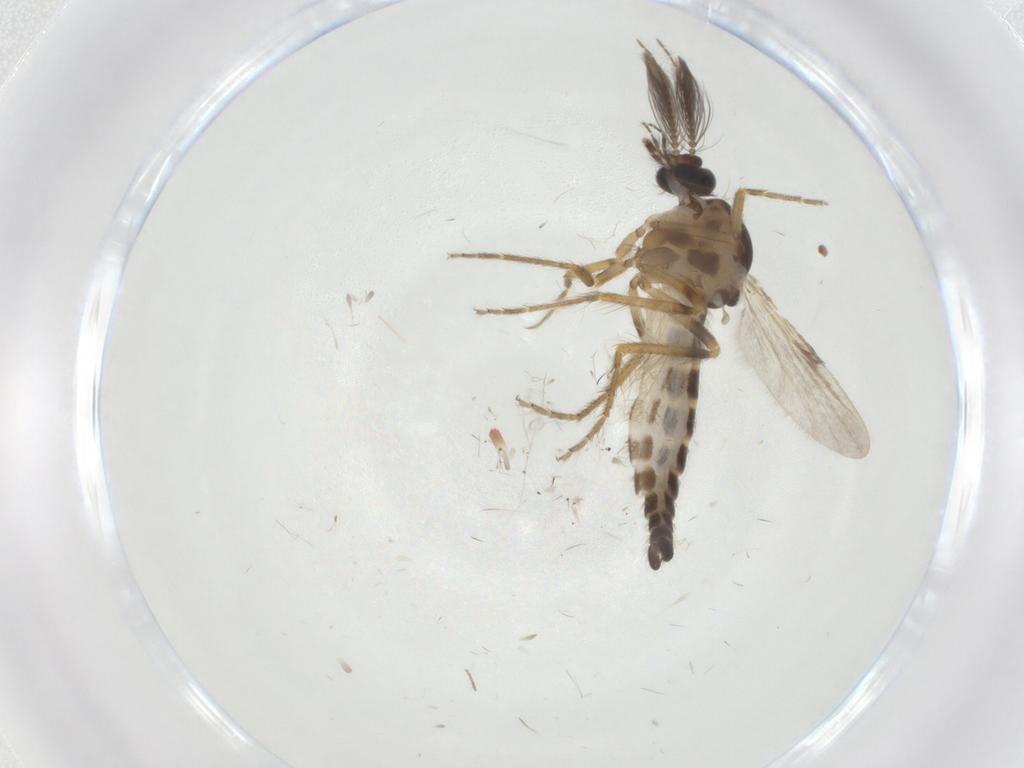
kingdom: Animalia
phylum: Arthropoda
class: Insecta
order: Diptera
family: Ceratopogonidae
